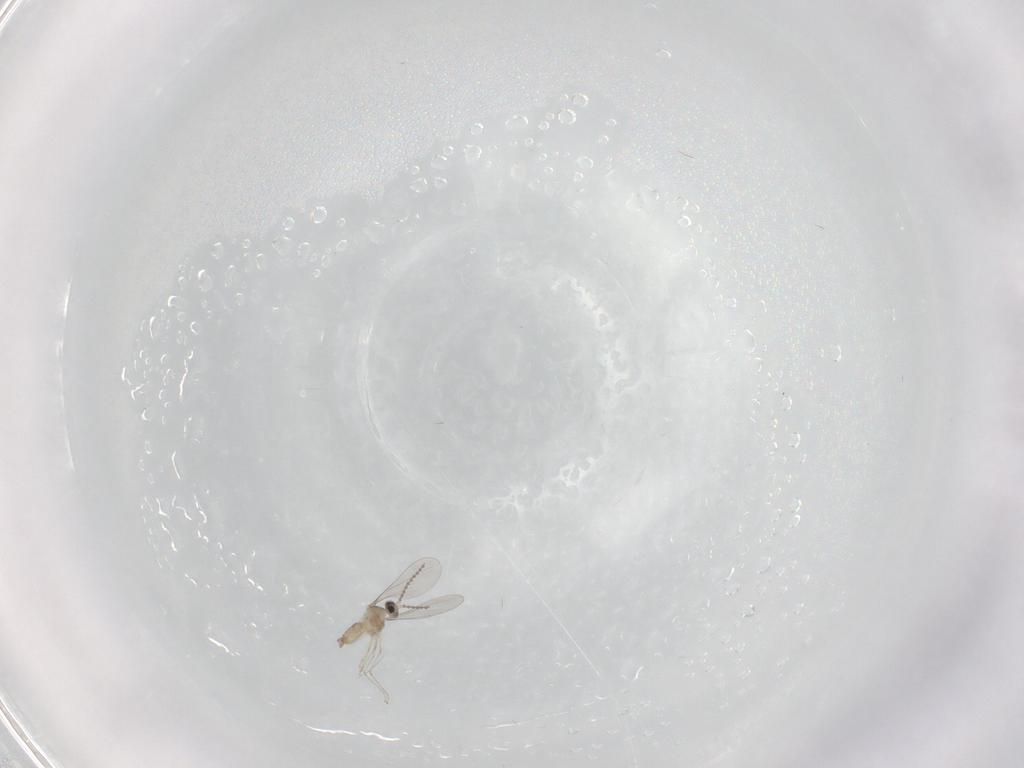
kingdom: Animalia
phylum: Arthropoda
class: Insecta
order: Diptera
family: Cecidomyiidae
